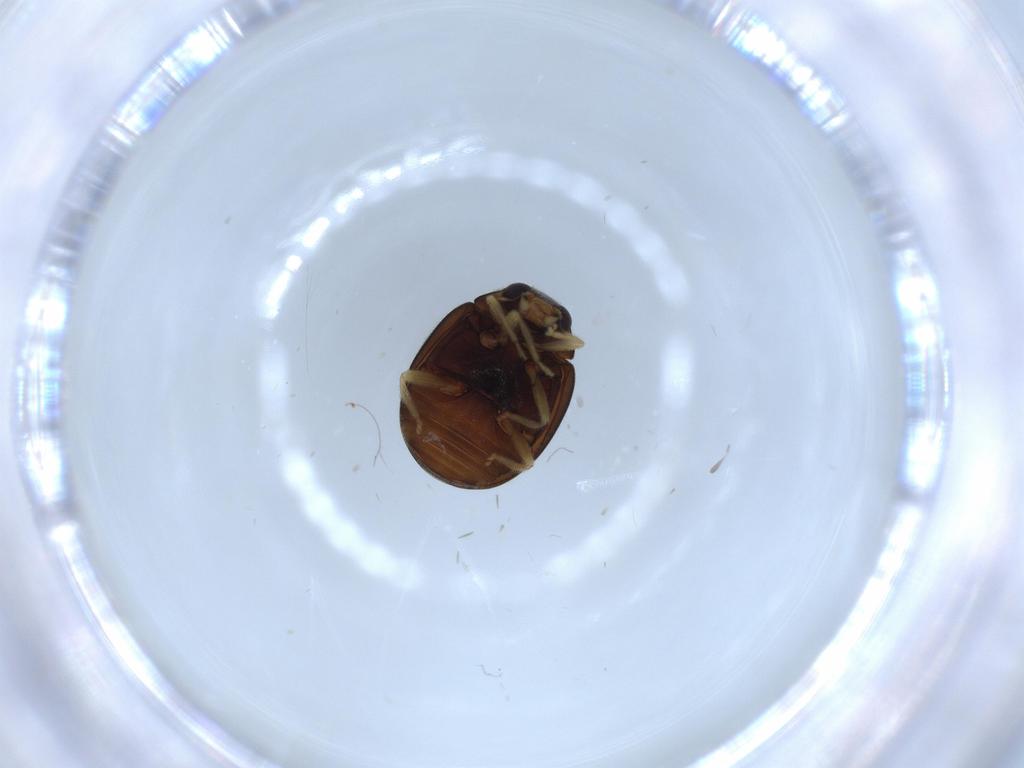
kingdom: Animalia
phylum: Arthropoda
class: Insecta
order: Coleoptera
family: Coccinellidae
